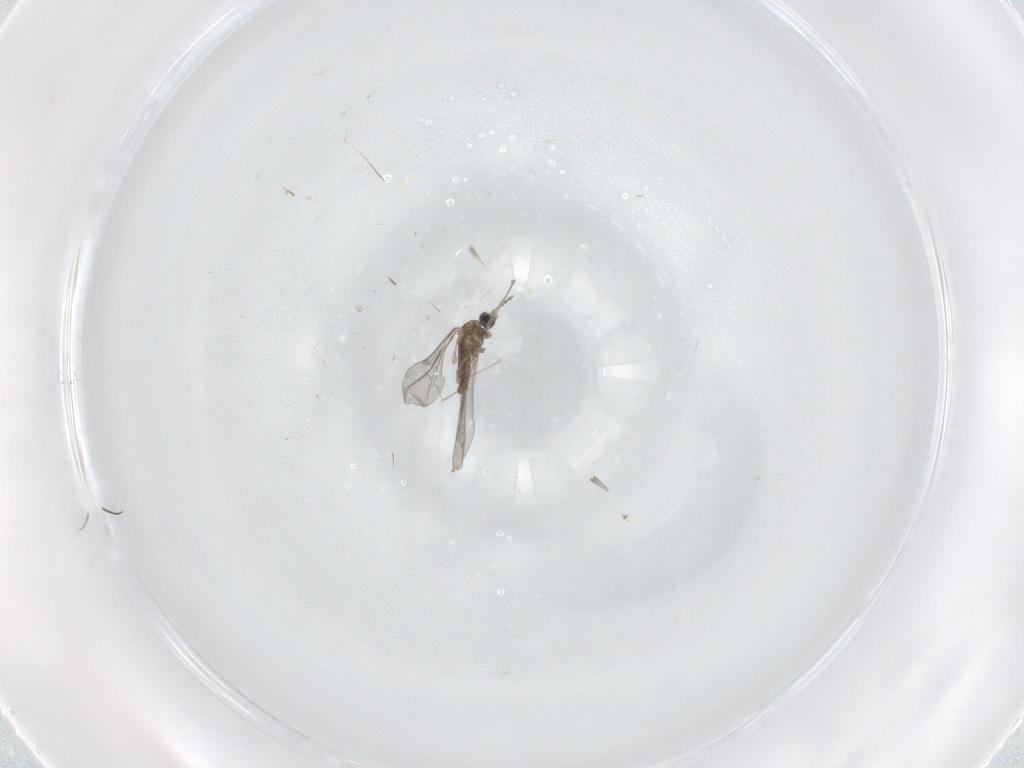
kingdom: Animalia
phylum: Arthropoda
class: Insecta
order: Diptera
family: Cecidomyiidae
